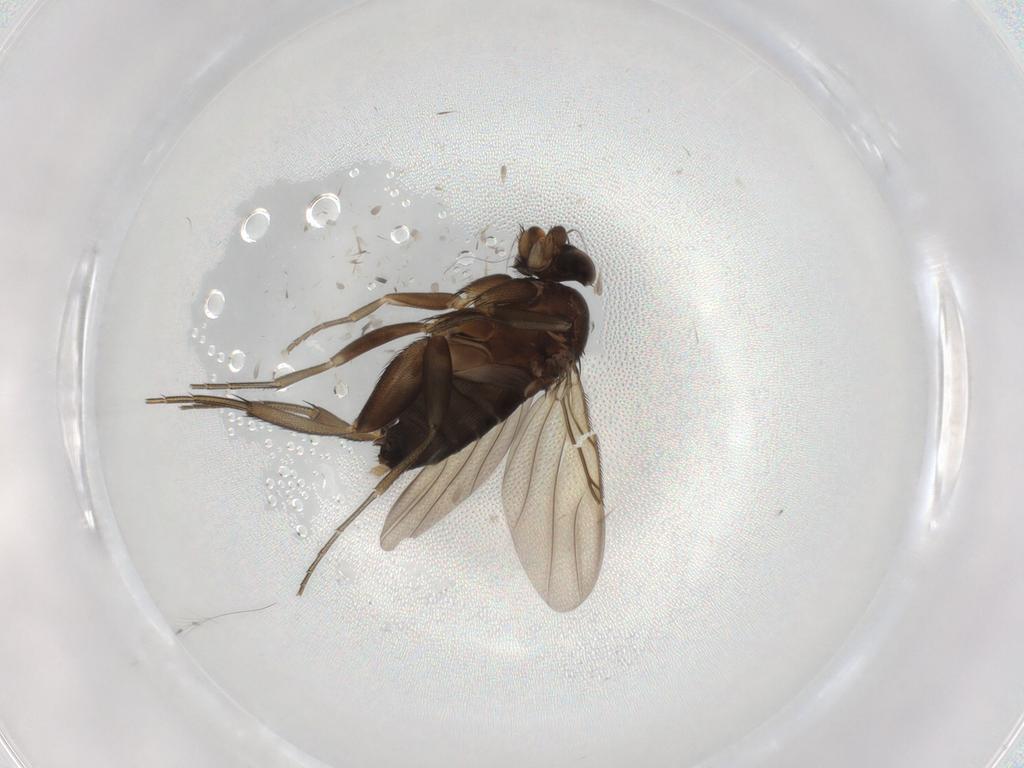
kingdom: Animalia
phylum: Arthropoda
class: Insecta
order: Diptera
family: Phoridae
